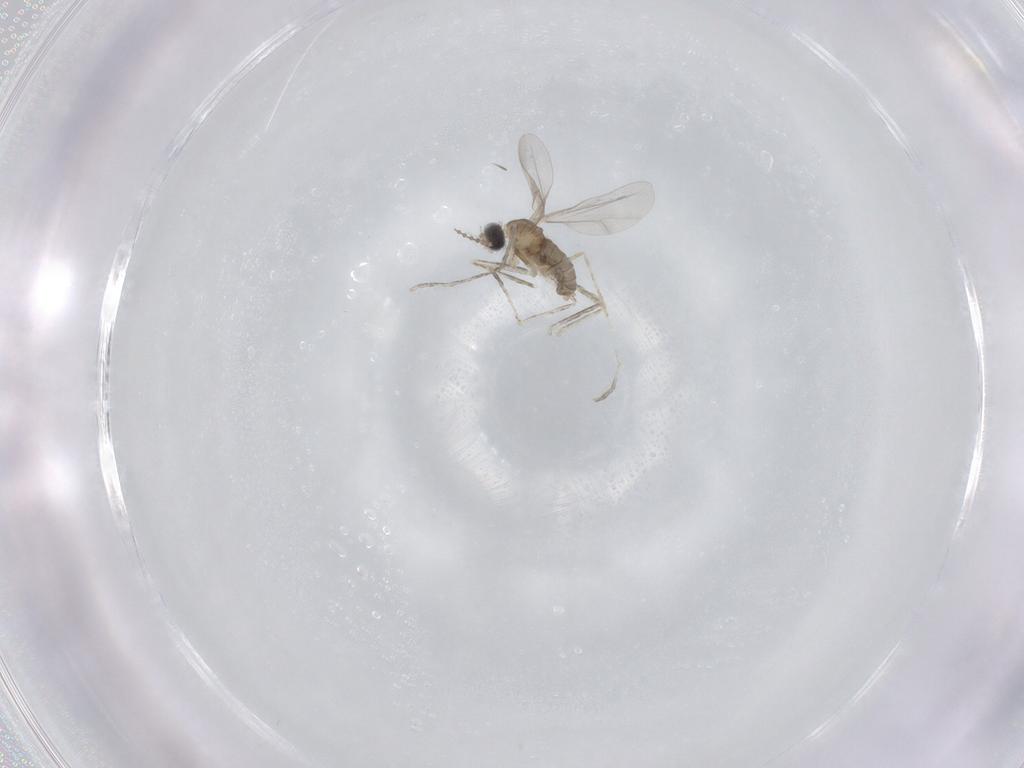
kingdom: Animalia
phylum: Arthropoda
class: Insecta
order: Diptera
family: Cecidomyiidae
